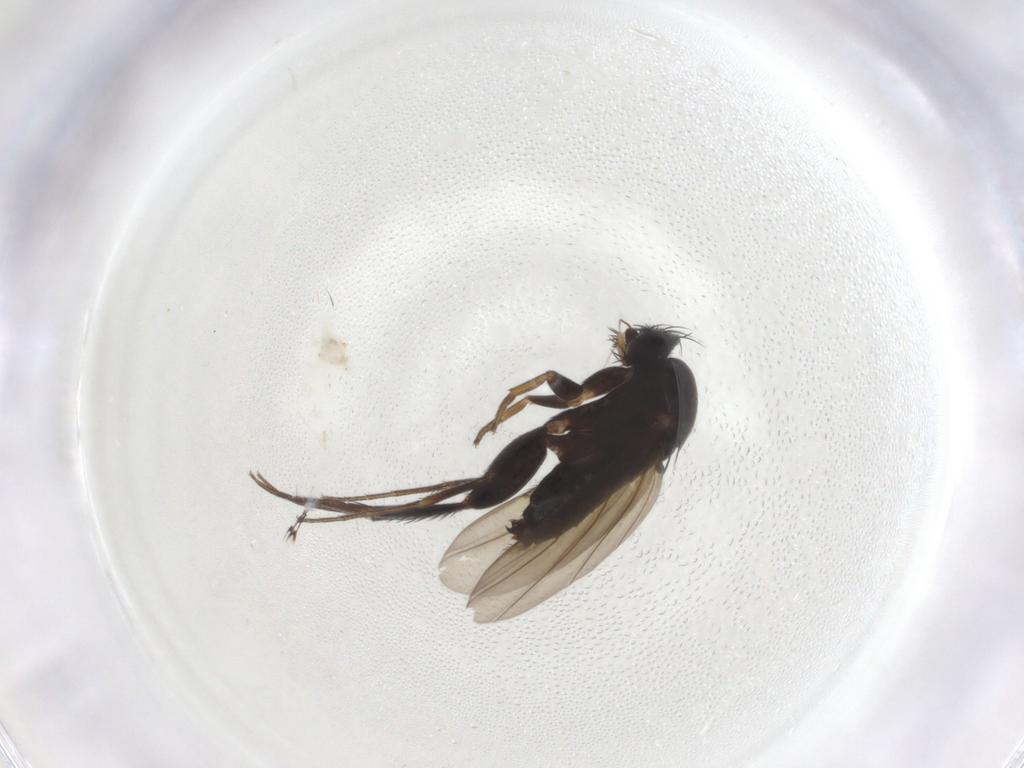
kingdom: Animalia
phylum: Arthropoda
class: Insecta
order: Diptera
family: Phoridae
